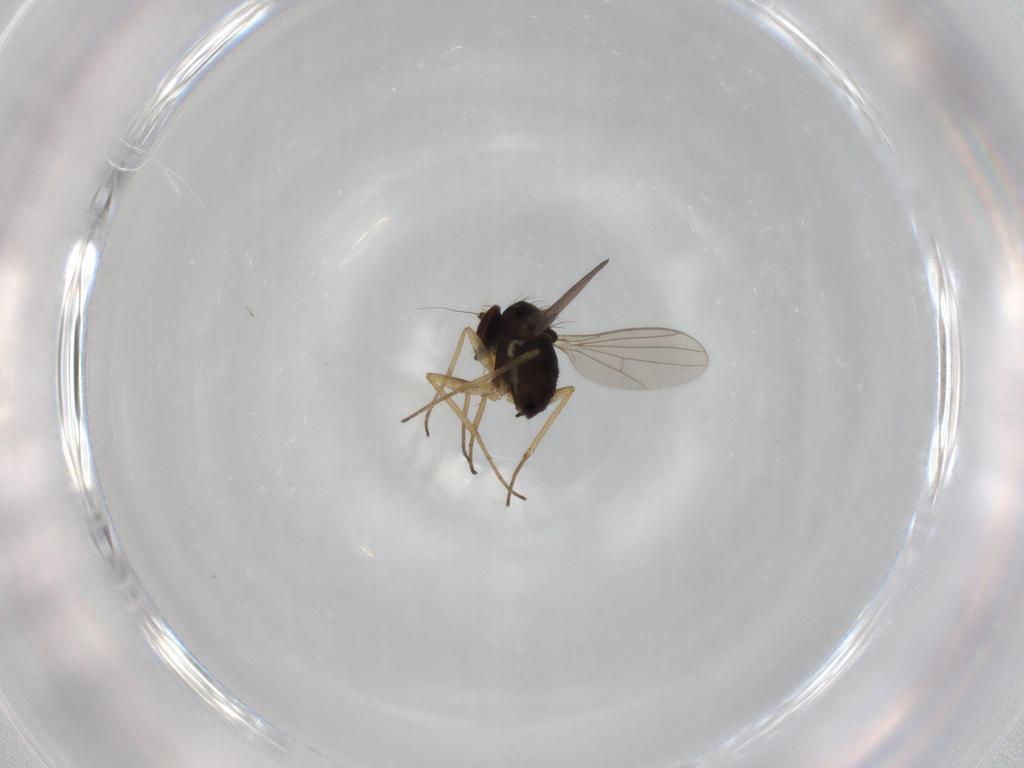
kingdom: Animalia
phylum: Arthropoda
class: Insecta
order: Diptera
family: Dolichopodidae
